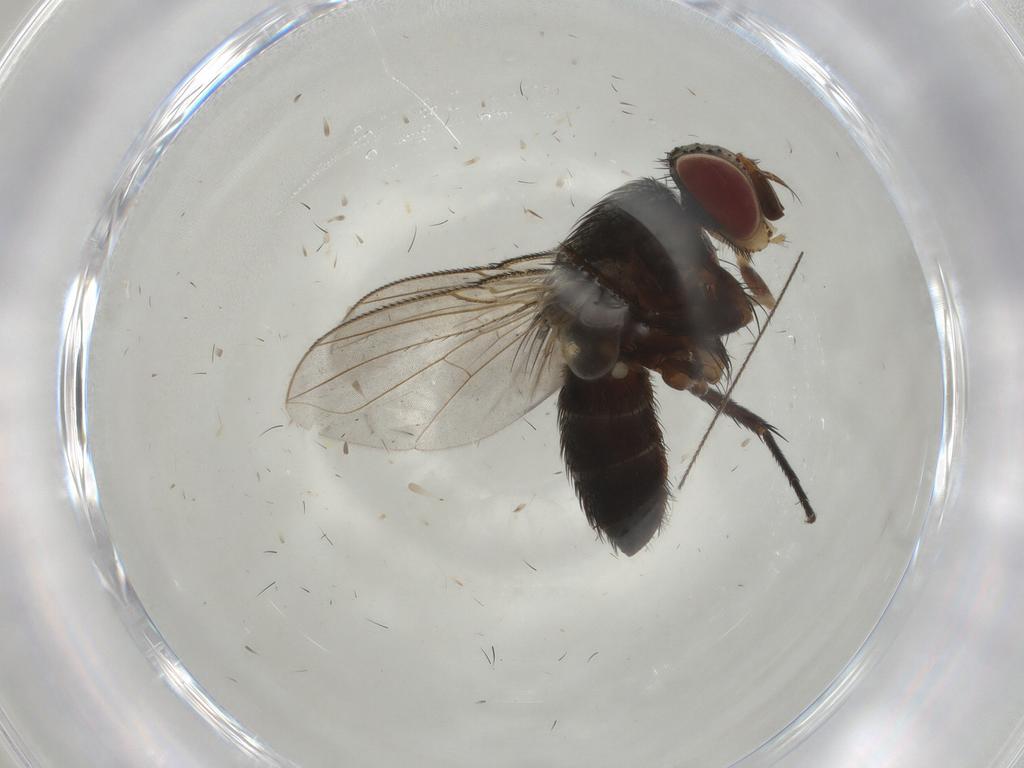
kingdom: Animalia
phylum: Arthropoda
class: Insecta
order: Diptera
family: Tachinidae
